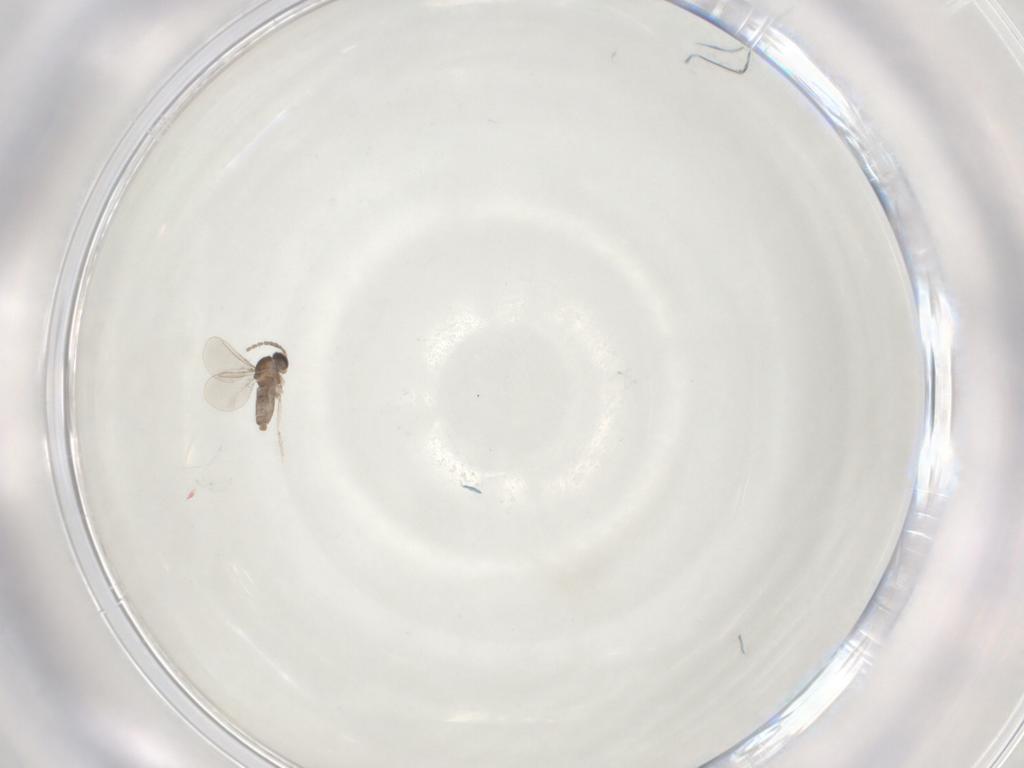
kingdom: Animalia
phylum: Arthropoda
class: Insecta
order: Diptera
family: Cecidomyiidae
